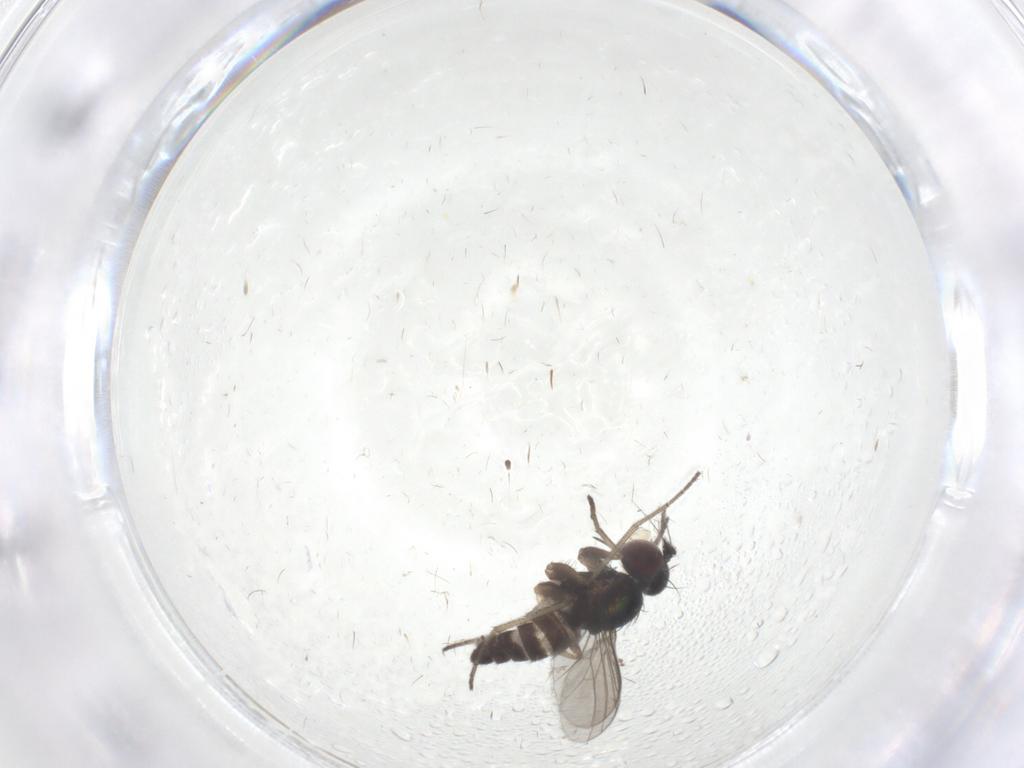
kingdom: Animalia
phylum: Arthropoda
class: Insecta
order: Diptera
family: Dolichopodidae
